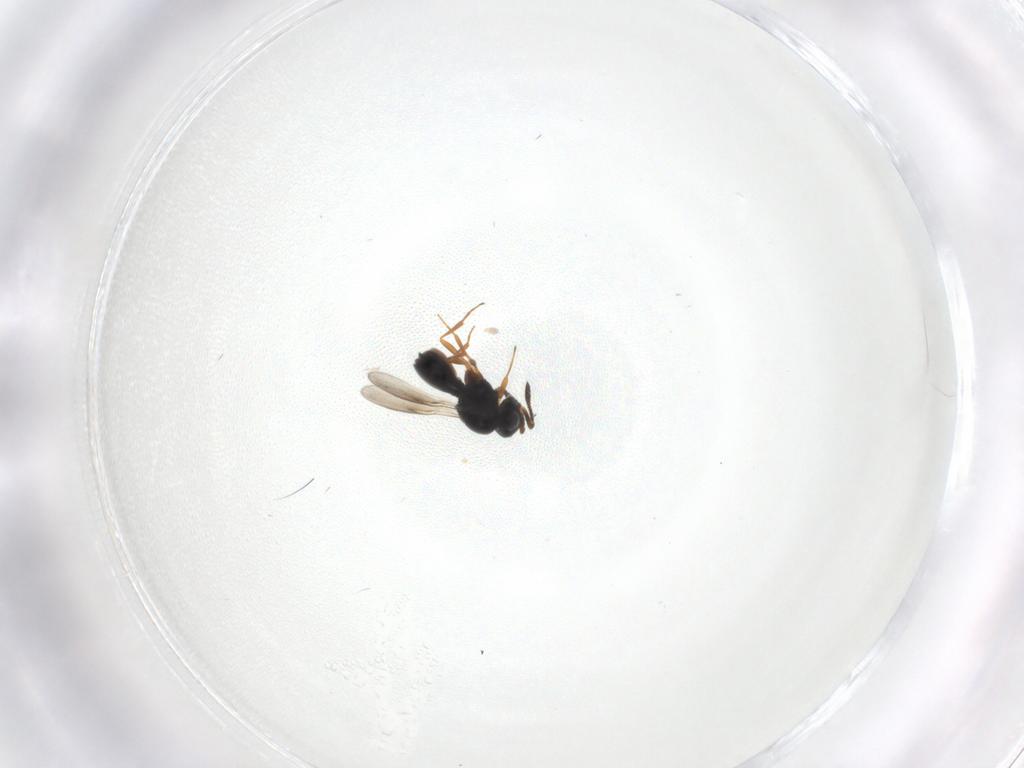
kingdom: Animalia
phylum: Arthropoda
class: Insecta
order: Hymenoptera
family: Scelionidae
